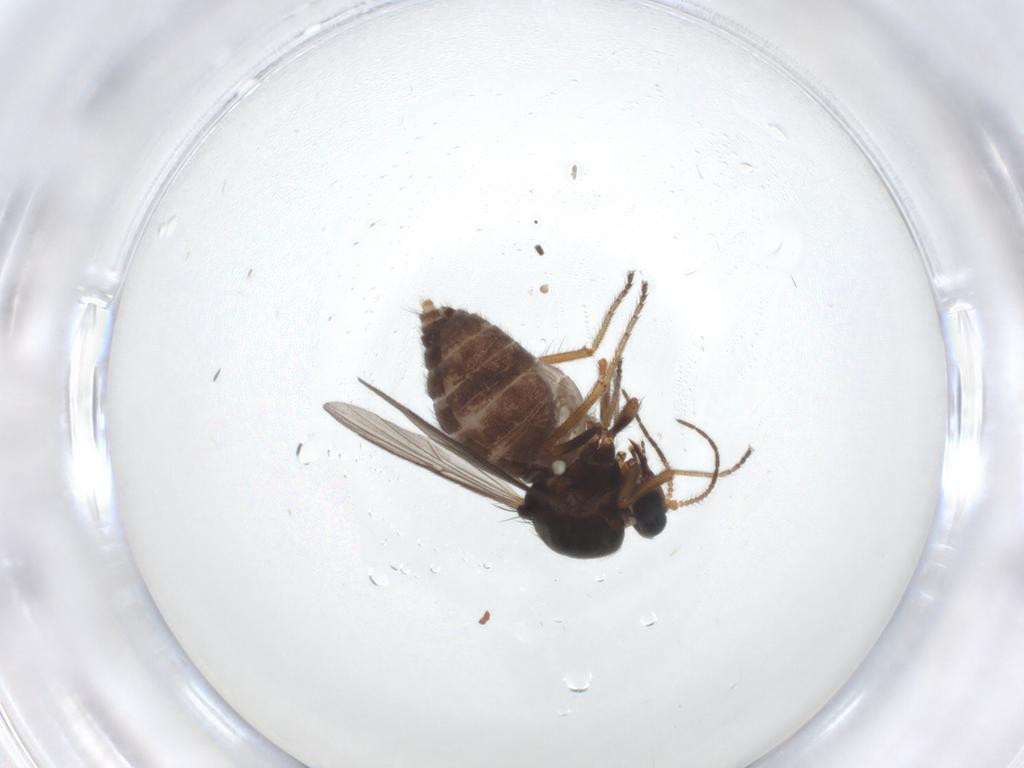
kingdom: Animalia
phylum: Arthropoda
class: Insecta
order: Diptera
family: Ceratopogonidae
